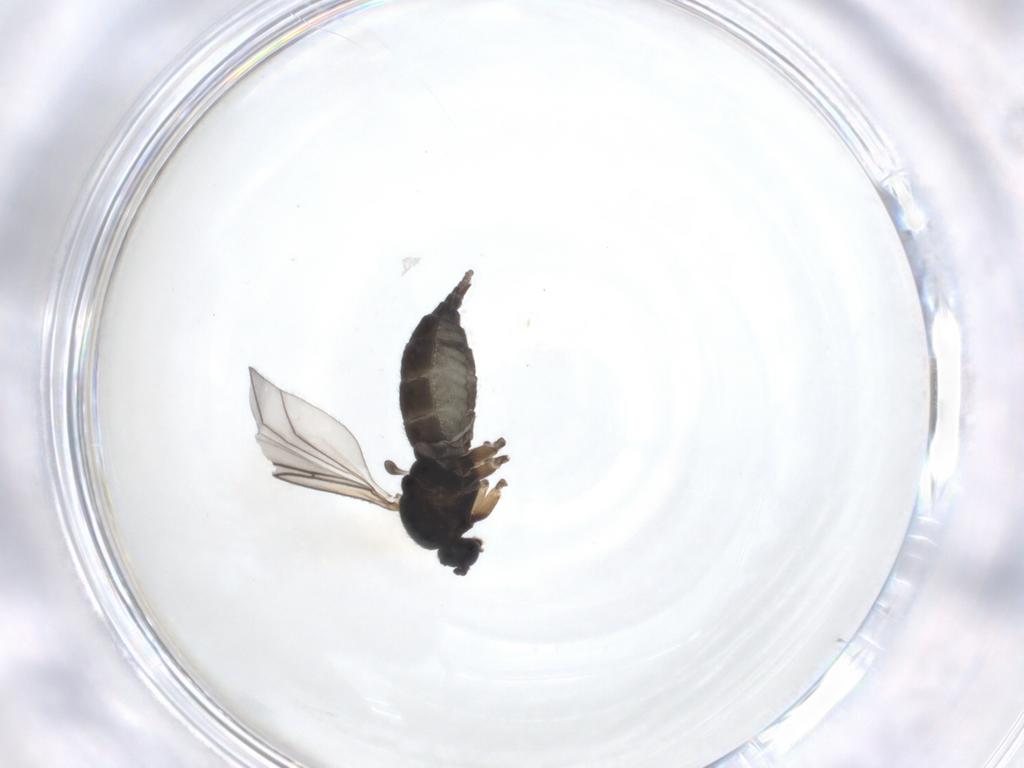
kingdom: Animalia
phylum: Arthropoda
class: Insecta
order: Diptera
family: Sciaridae
